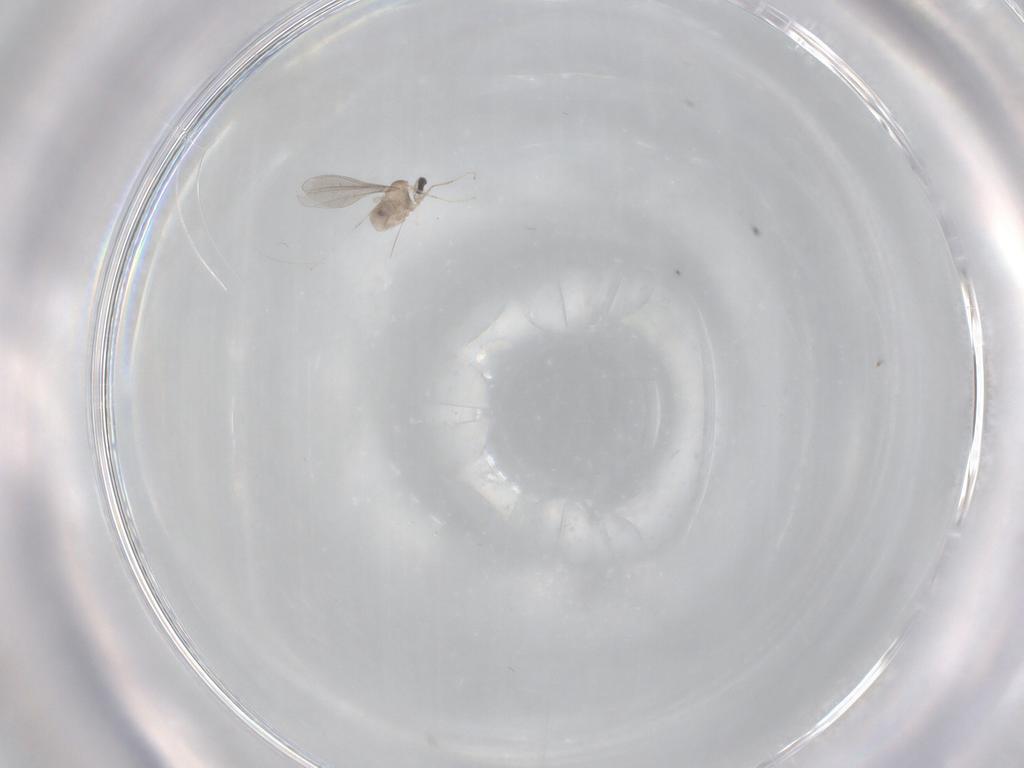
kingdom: Animalia
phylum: Arthropoda
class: Insecta
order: Diptera
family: Cecidomyiidae
